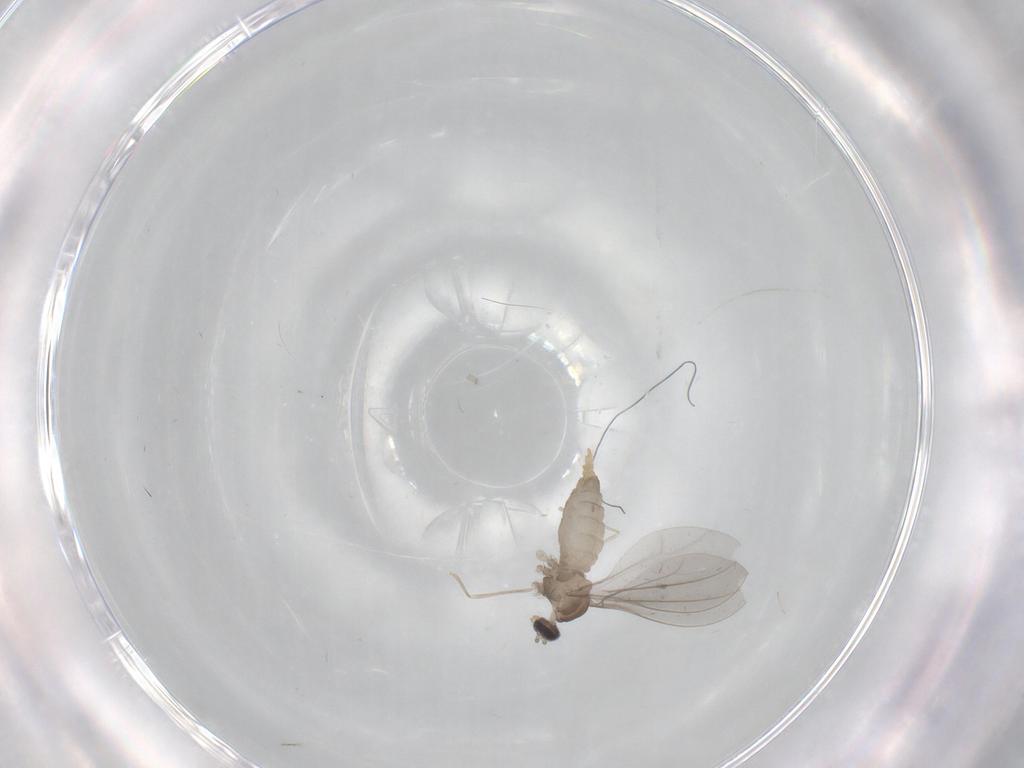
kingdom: Animalia
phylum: Arthropoda
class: Insecta
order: Diptera
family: Cecidomyiidae
